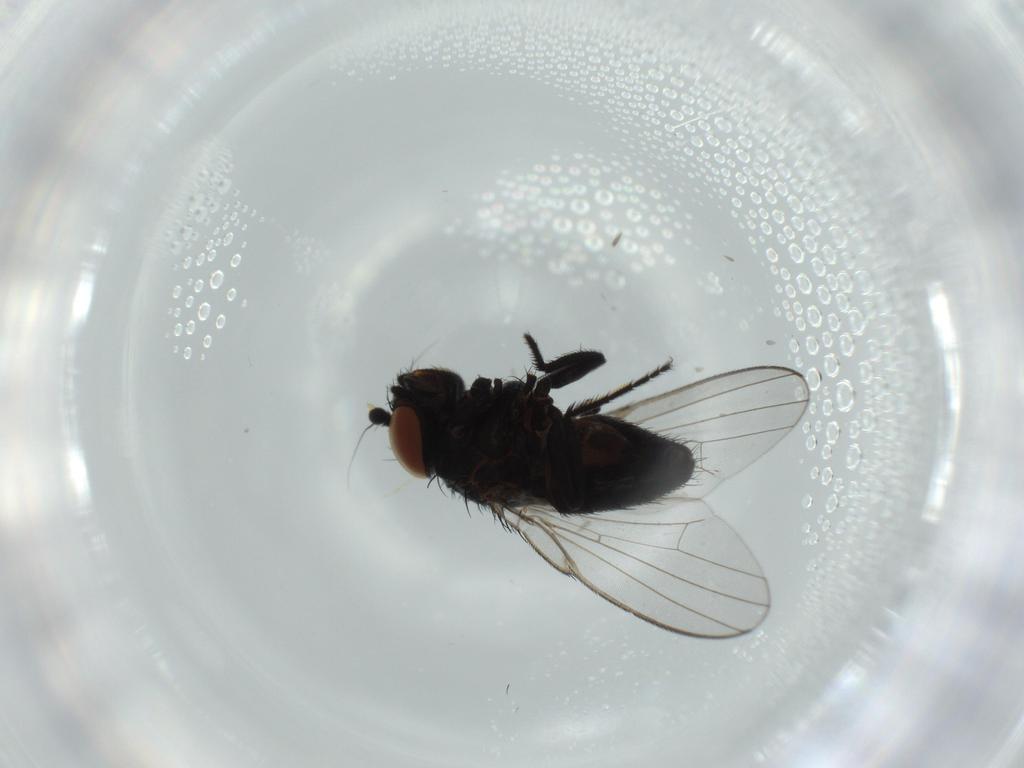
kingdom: Animalia
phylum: Arthropoda
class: Insecta
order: Diptera
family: Milichiidae
